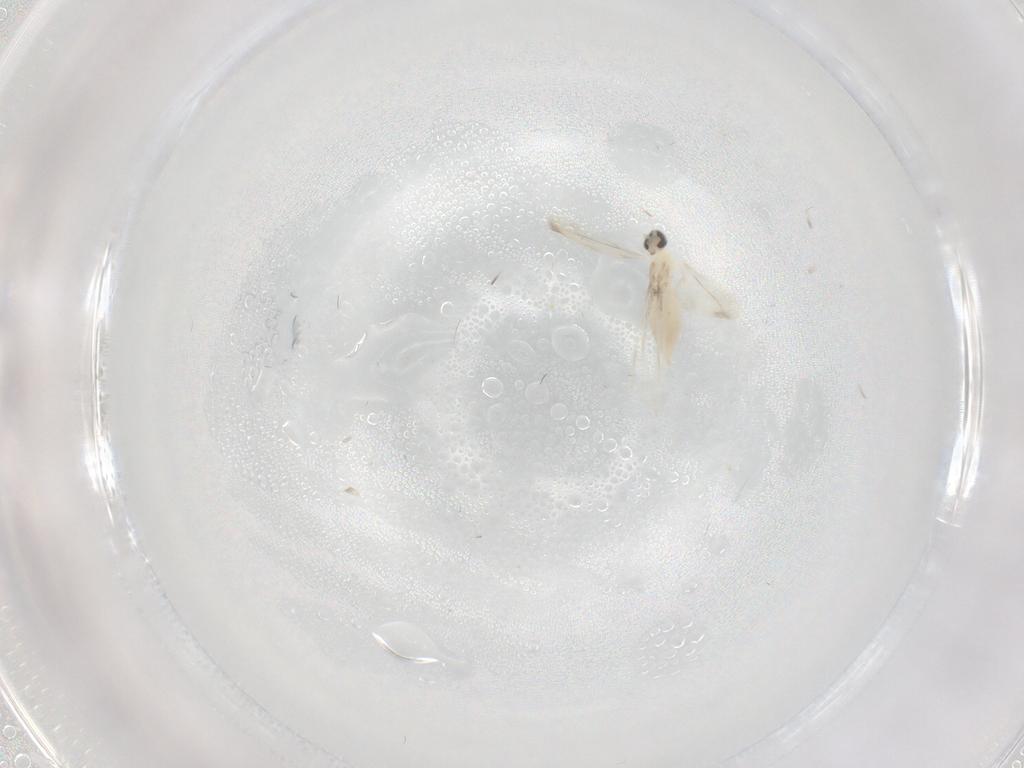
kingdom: Animalia
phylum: Arthropoda
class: Insecta
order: Diptera
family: Cecidomyiidae
